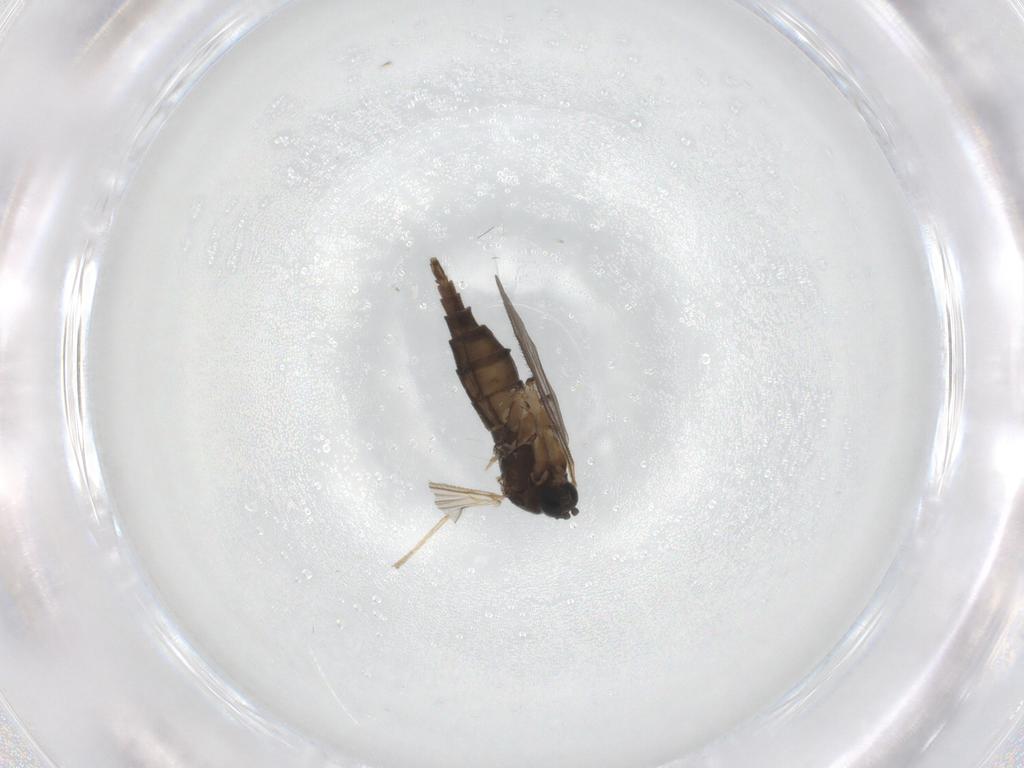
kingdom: Animalia
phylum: Arthropoda
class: Insecta
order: Diptera
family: Sciaridae
